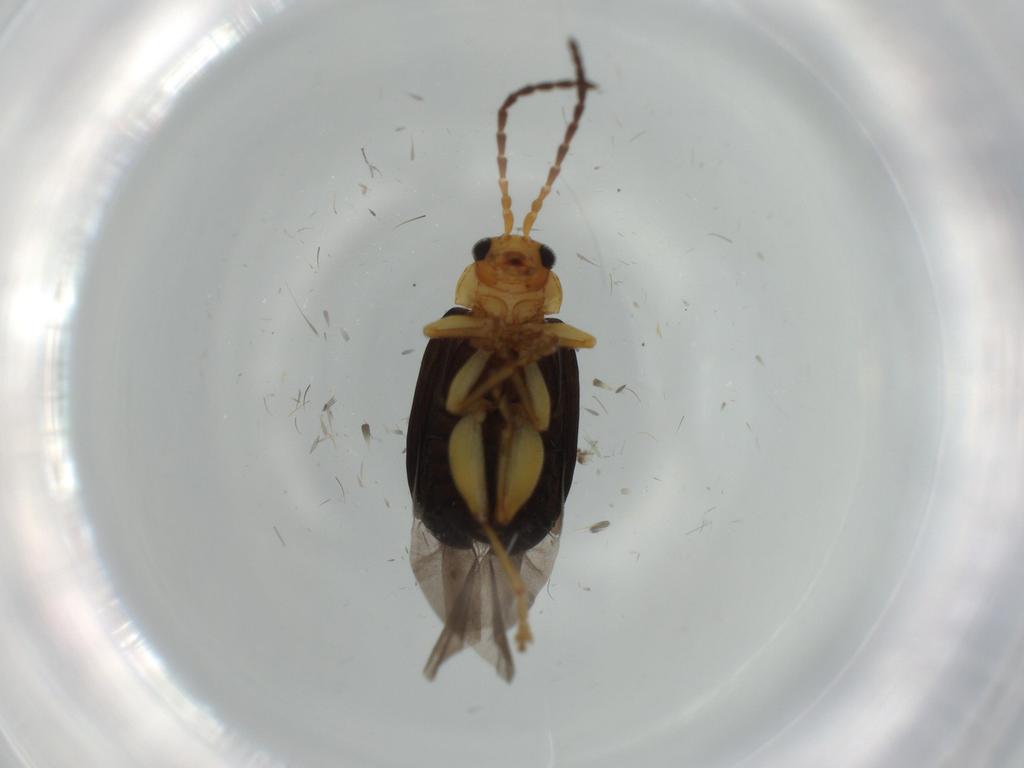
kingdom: Animalia
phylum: Arthropoda
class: Insecta
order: Coleoptera
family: Chrysomelidae
